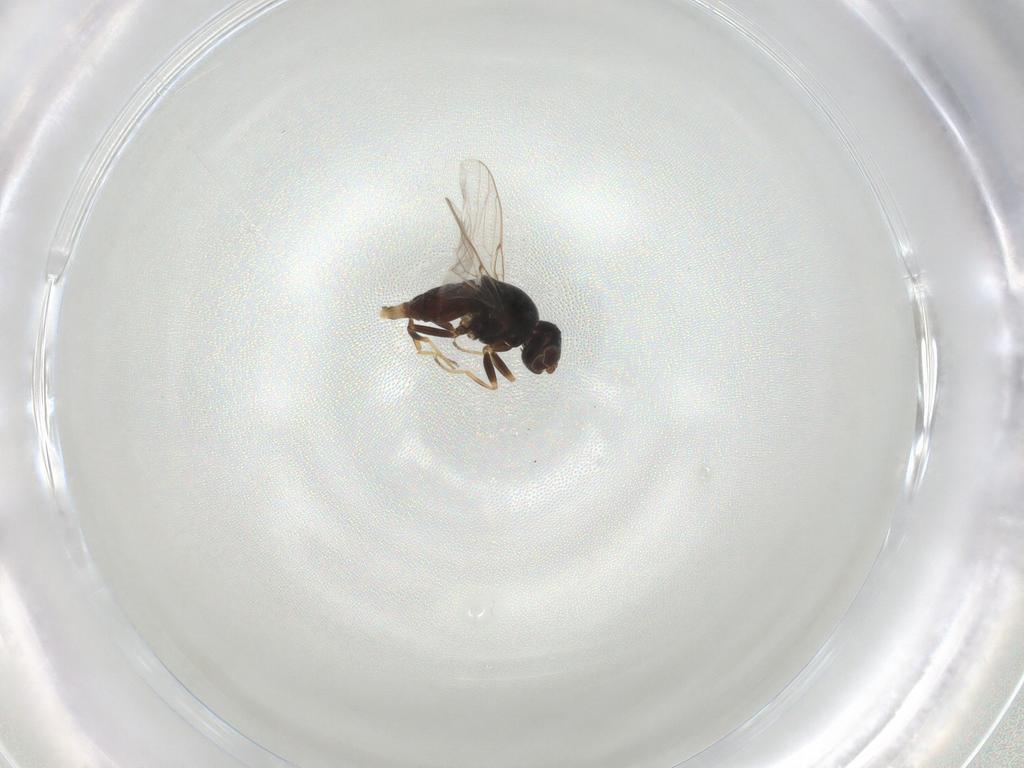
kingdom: Animalia
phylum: Arthropoda
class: Insecta
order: Diptera
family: Chloropidae
